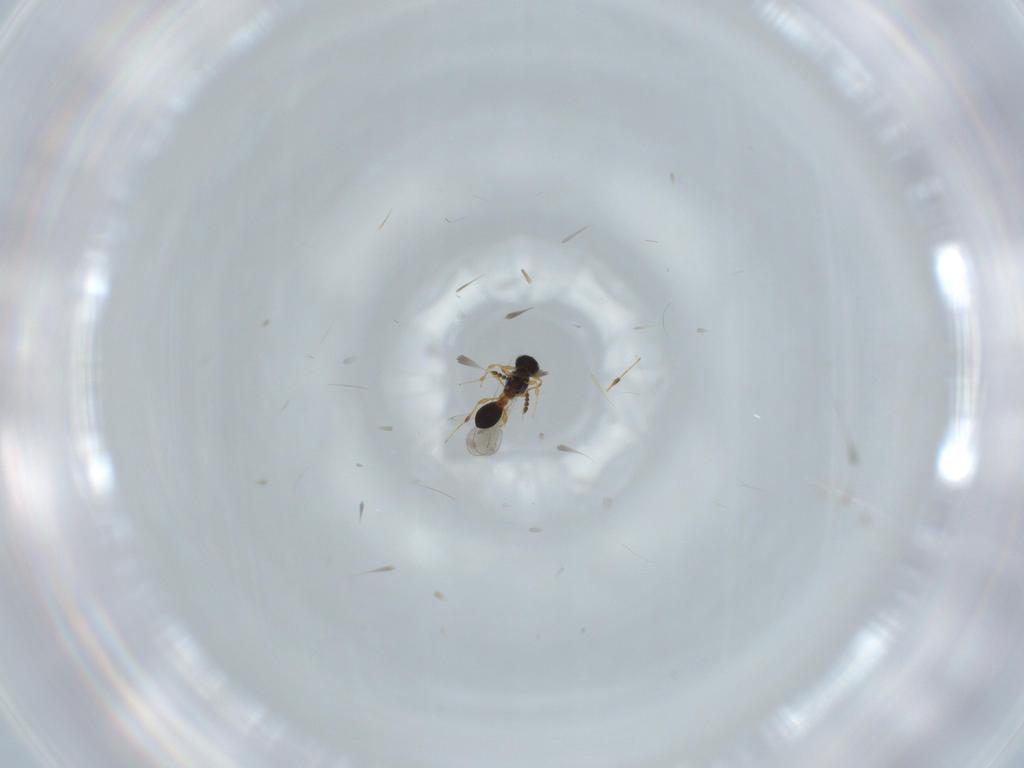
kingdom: Animalia
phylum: Arthropoda
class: Insecta
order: Hymenoptera
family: Platygastridae
